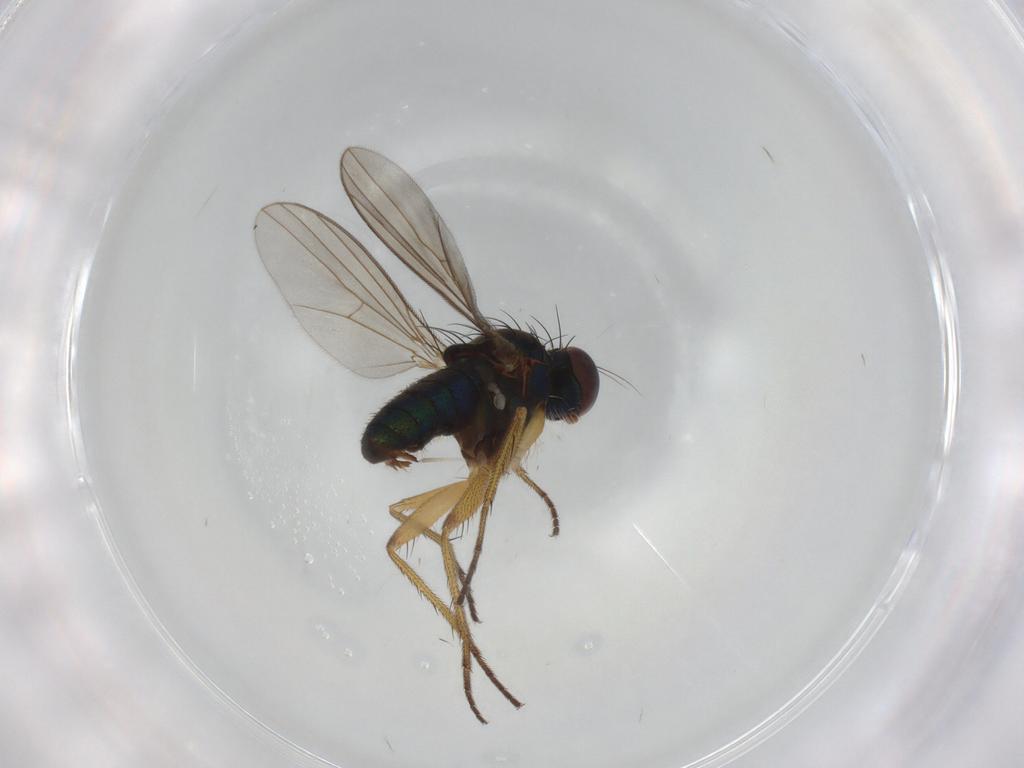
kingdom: Animalia
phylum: Arthropoda
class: Insecta
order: Diptera
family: Dolichopodidae
